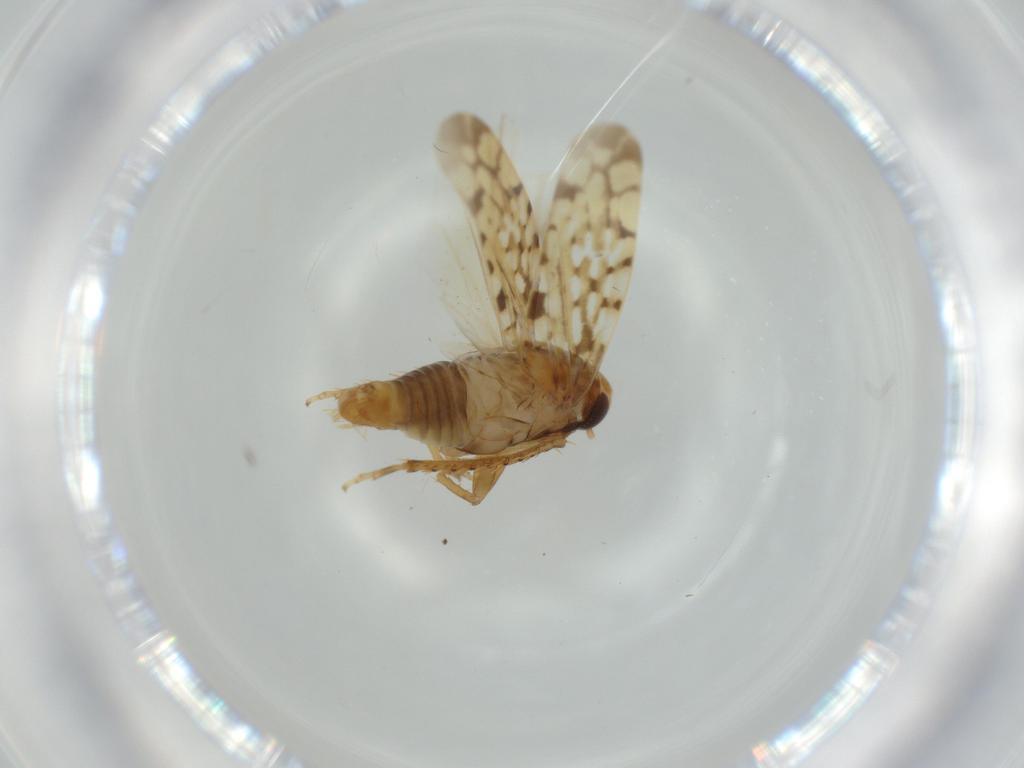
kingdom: Animalia
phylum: Arthropoda
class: Insecta
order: Hemiptera
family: Cicadellidae
